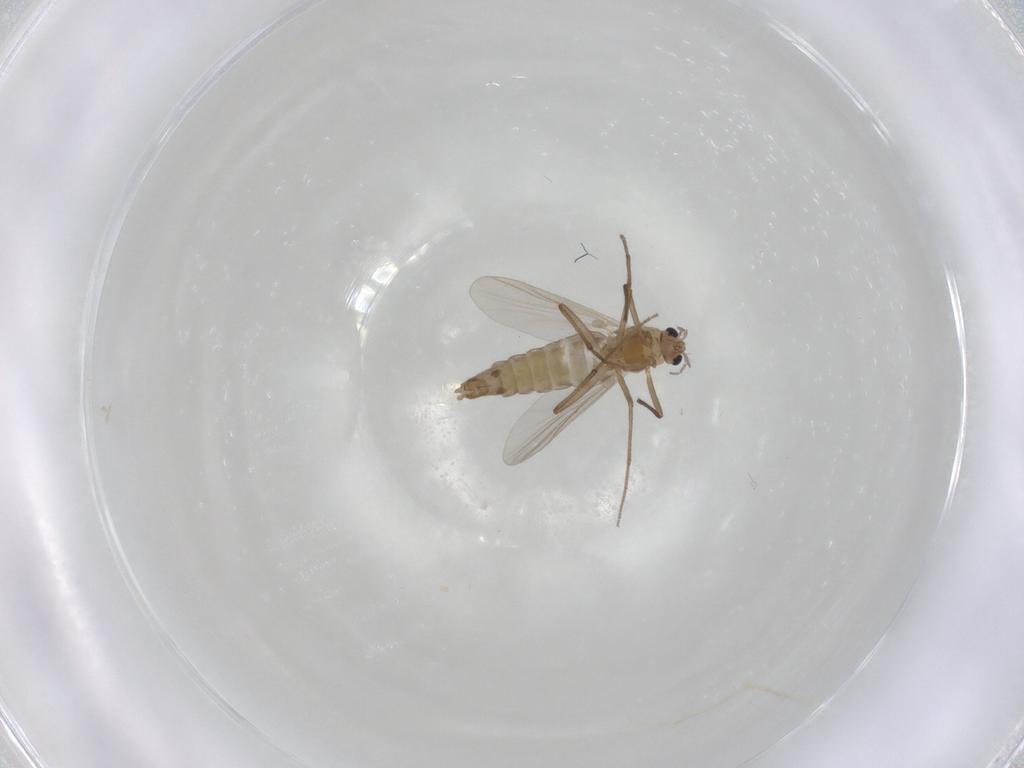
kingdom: Animalia
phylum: Arthropoda
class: Insecta
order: Diptera
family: Chironomidae
